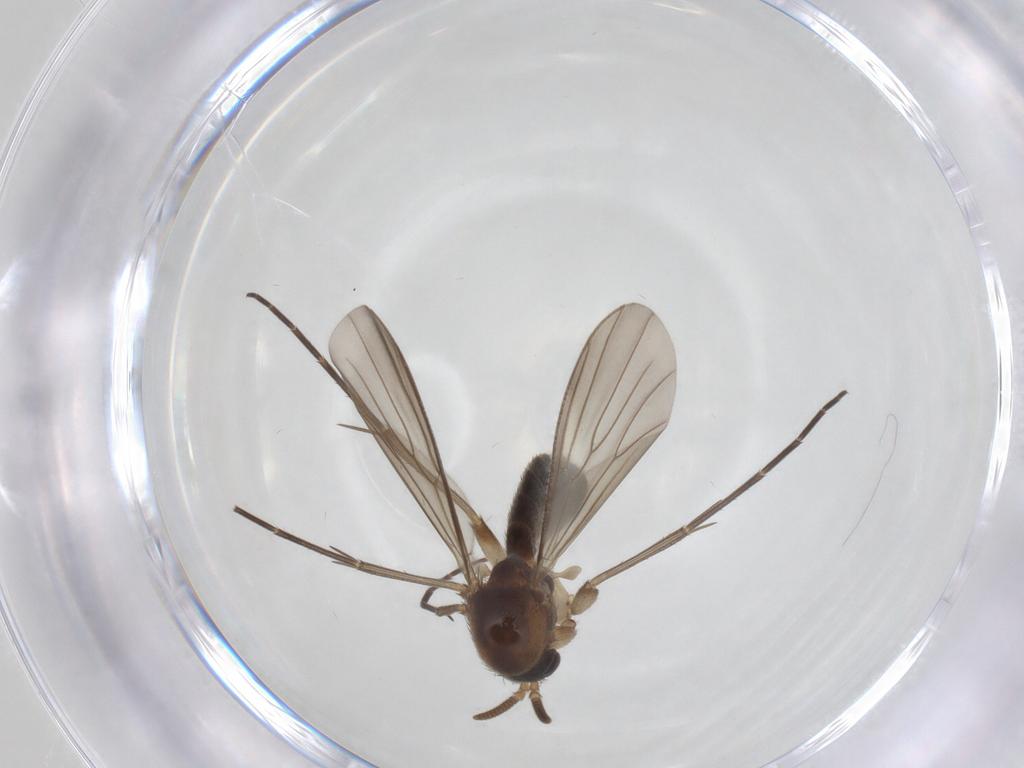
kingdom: Animalia
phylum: Arthropoda
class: Insecta
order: Diptera
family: Mycetophilidae
